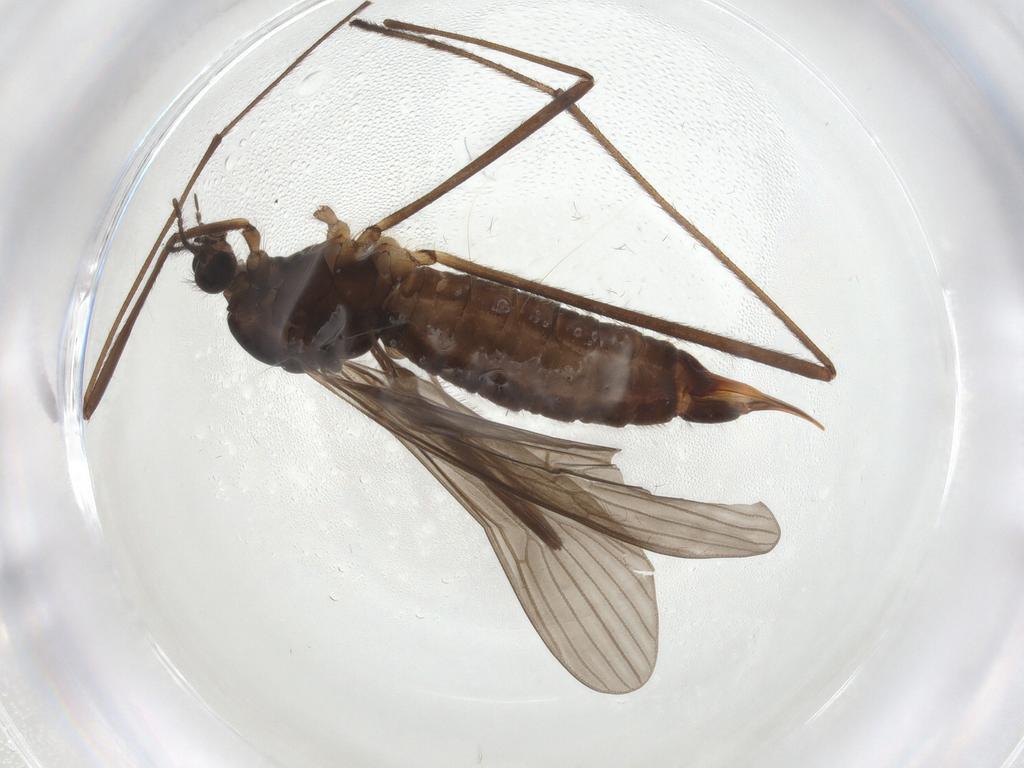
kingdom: Animalia
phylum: Arthropoda
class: Insecta
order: Diptera
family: Limoniidae
